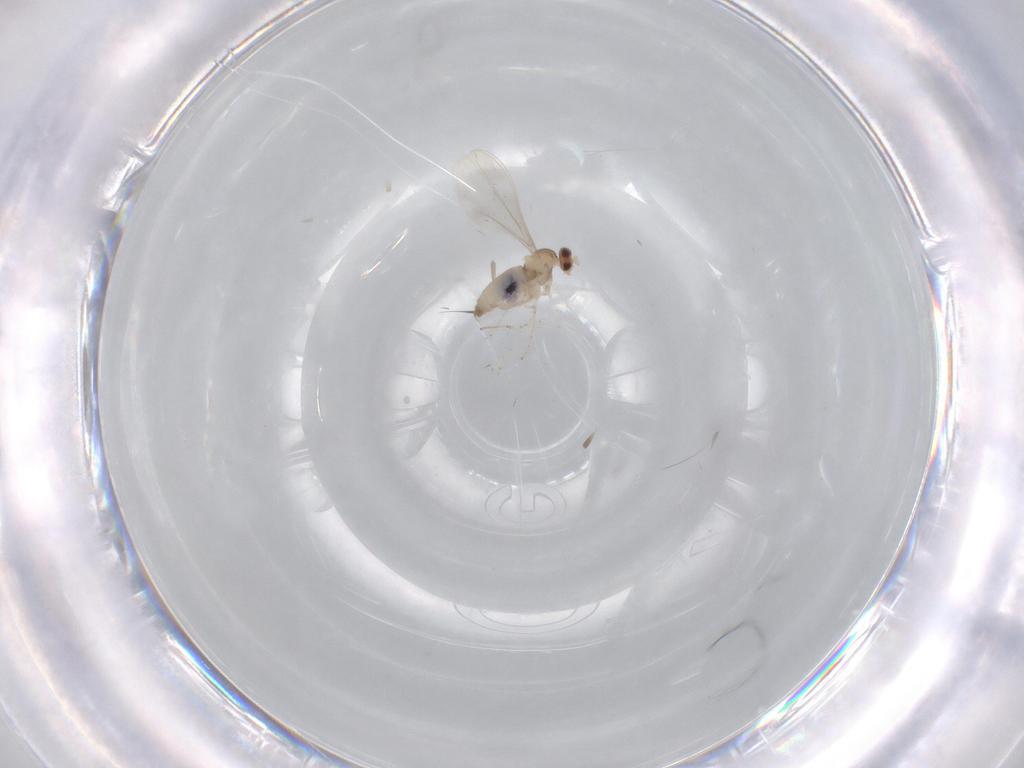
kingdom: Animalia
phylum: Arthropoda
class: Insecta
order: Diptera
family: Cecidomyiidae
